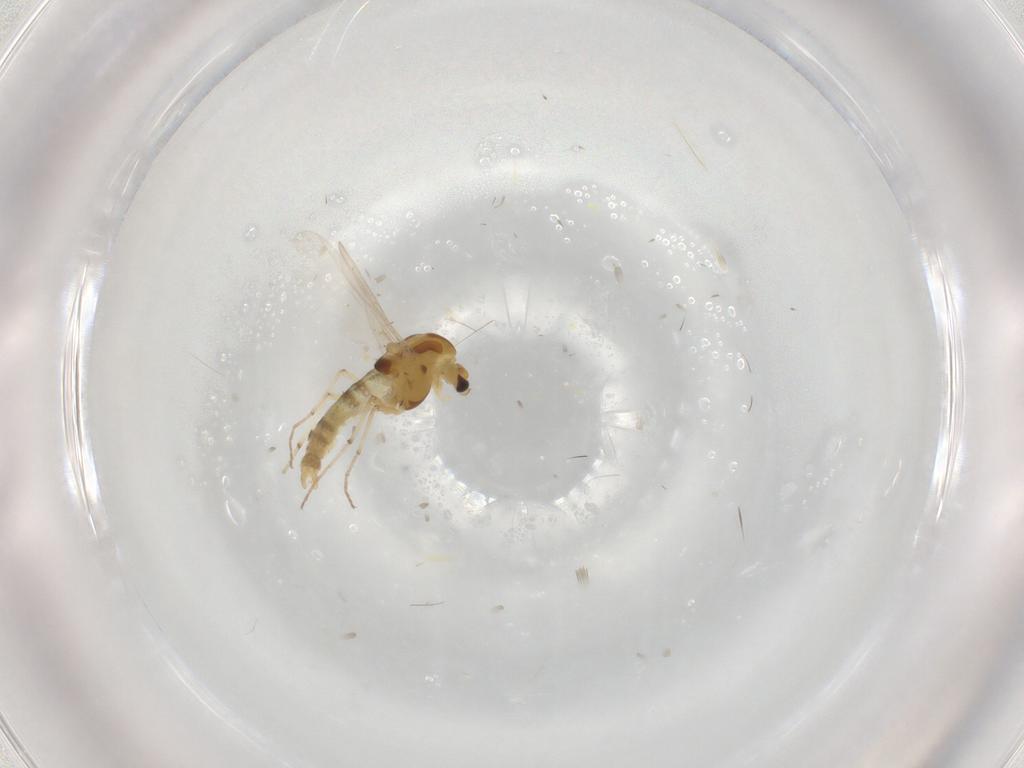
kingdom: Animalia
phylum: Arthropoda
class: Insecta
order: Diptera
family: Chironomidae
